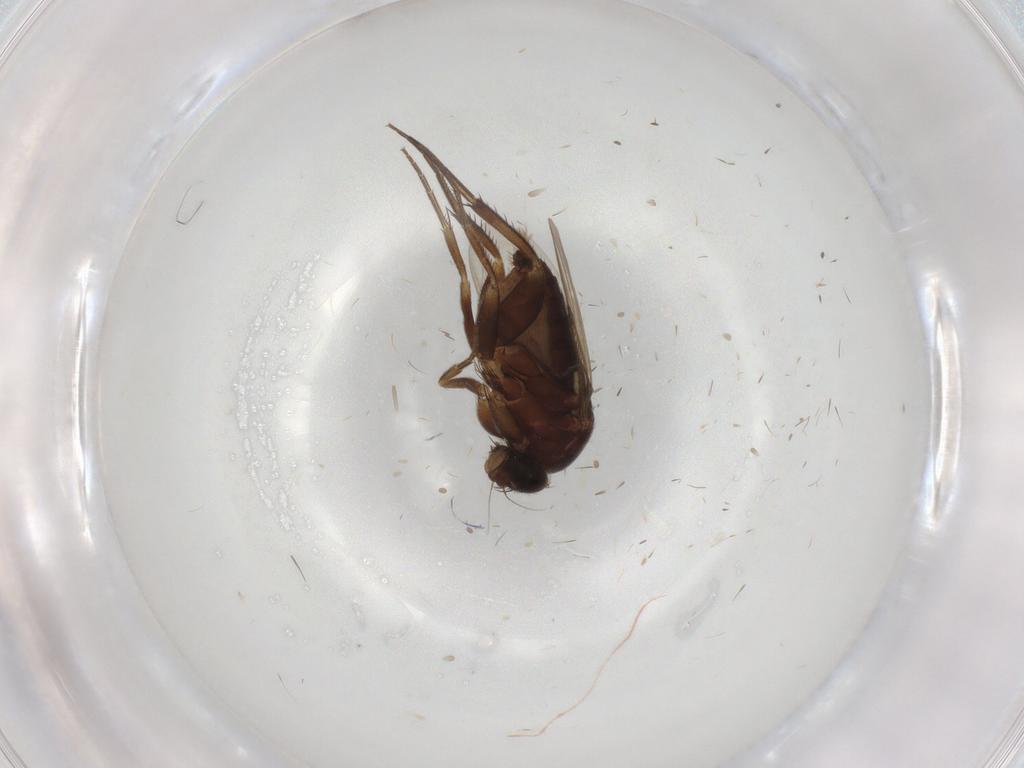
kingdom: Animalia
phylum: Arthropoda
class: Insecta
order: Diptera
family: Phoridae
